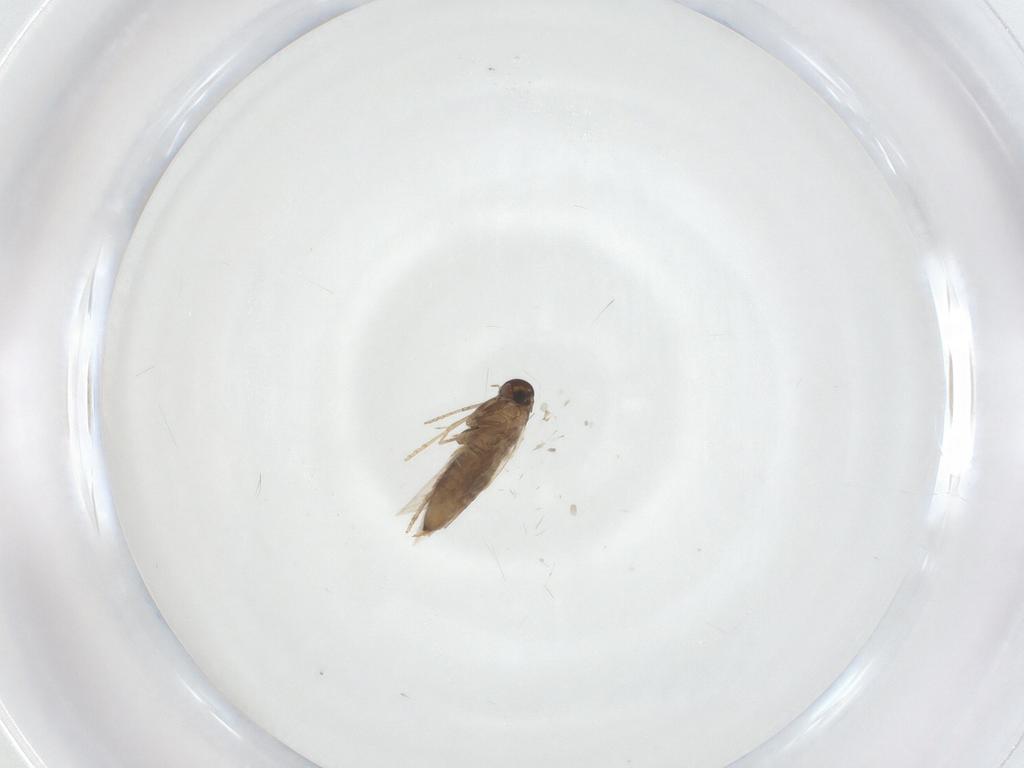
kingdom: Animalia
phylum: Arthropoda
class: Insecta
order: Lepidoptera
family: Heliozelidae
